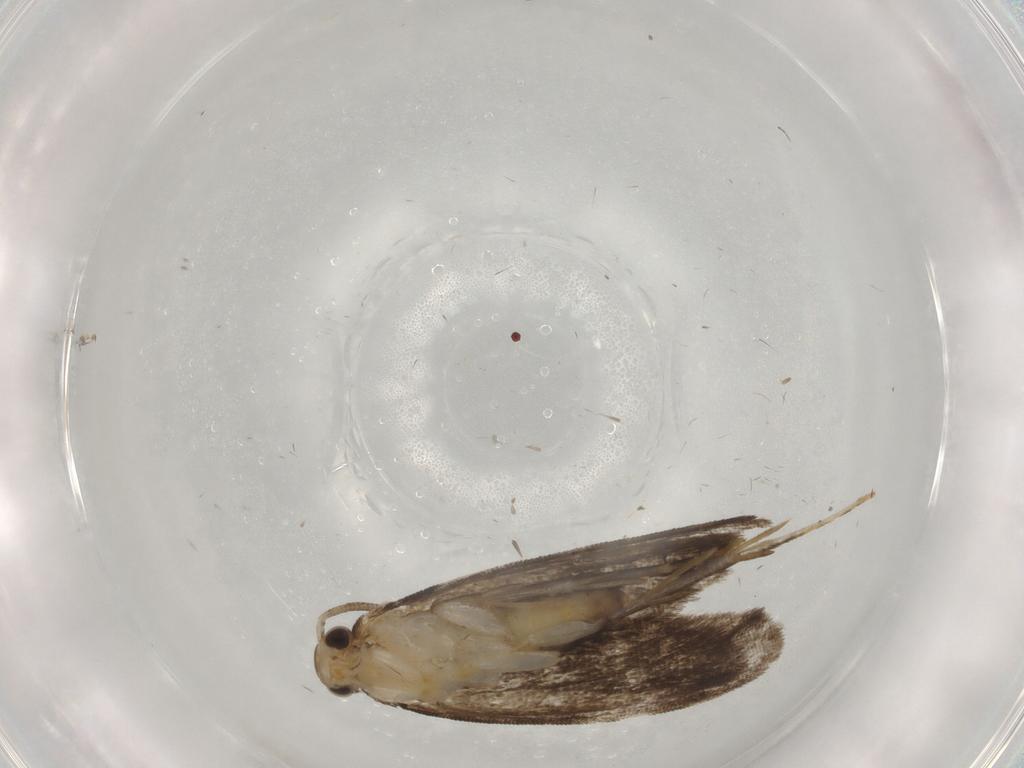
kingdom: Animalia
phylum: Arthropoda
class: Insecta
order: Lepidoptera
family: Dryadaulidae
